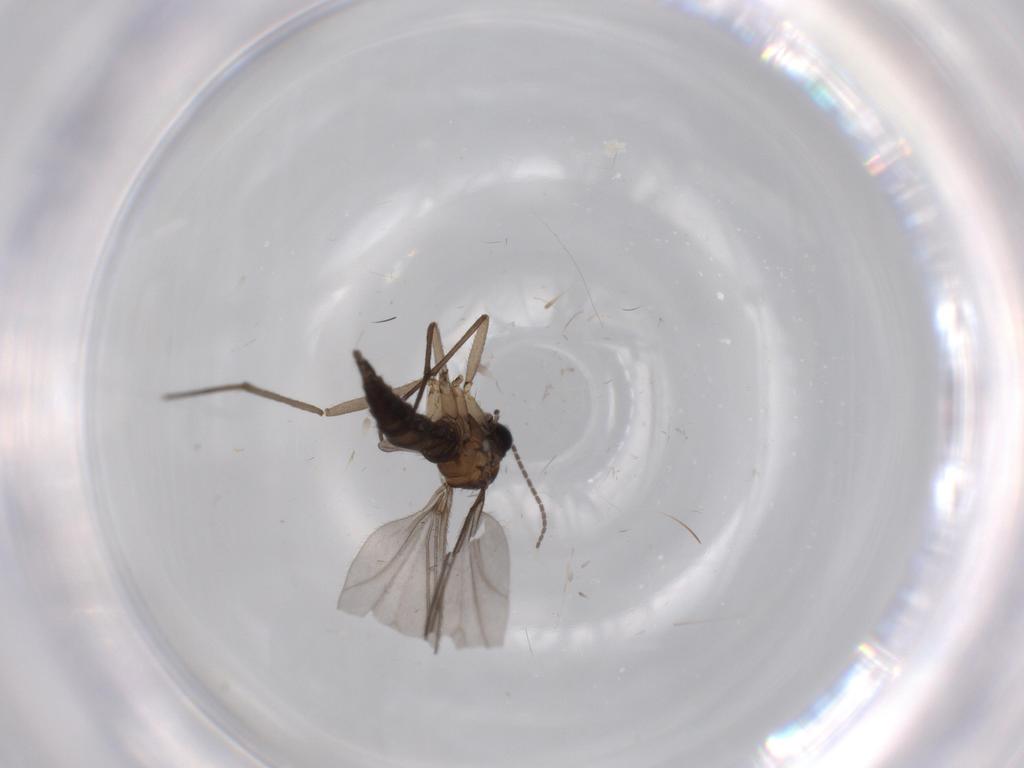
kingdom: Animalia
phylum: Arthropoda
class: Insecta
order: Diptera
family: Sciaridae
